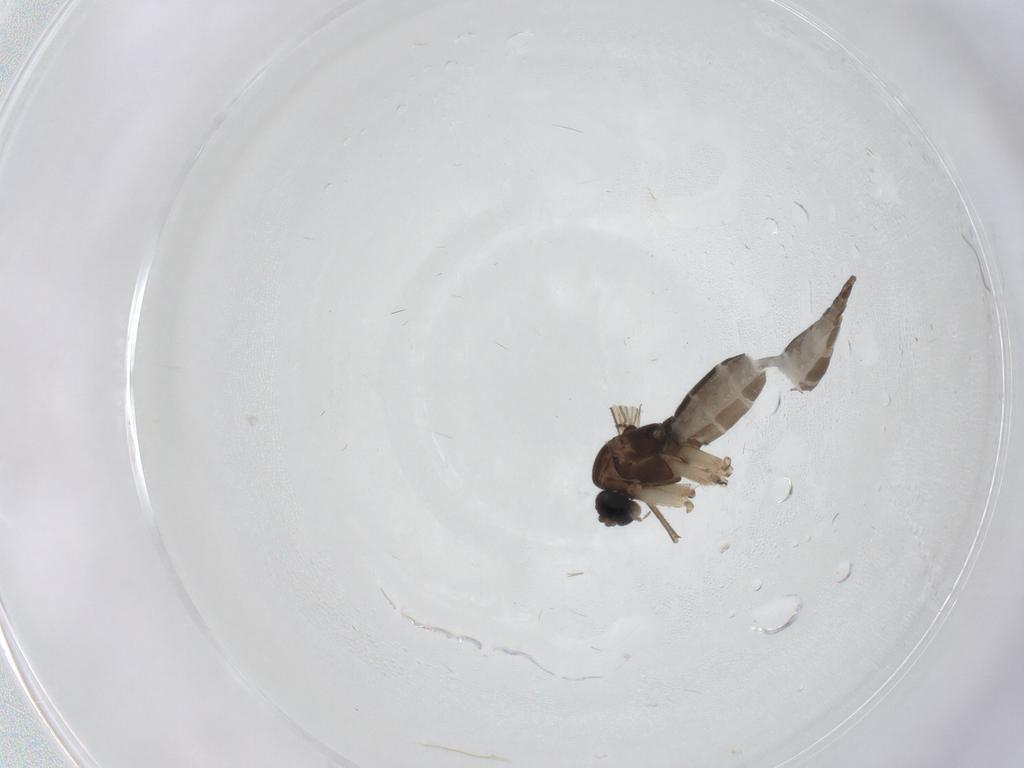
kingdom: Animalia
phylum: Arthropoda
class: Insecta
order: Diptera
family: Sciaridae
